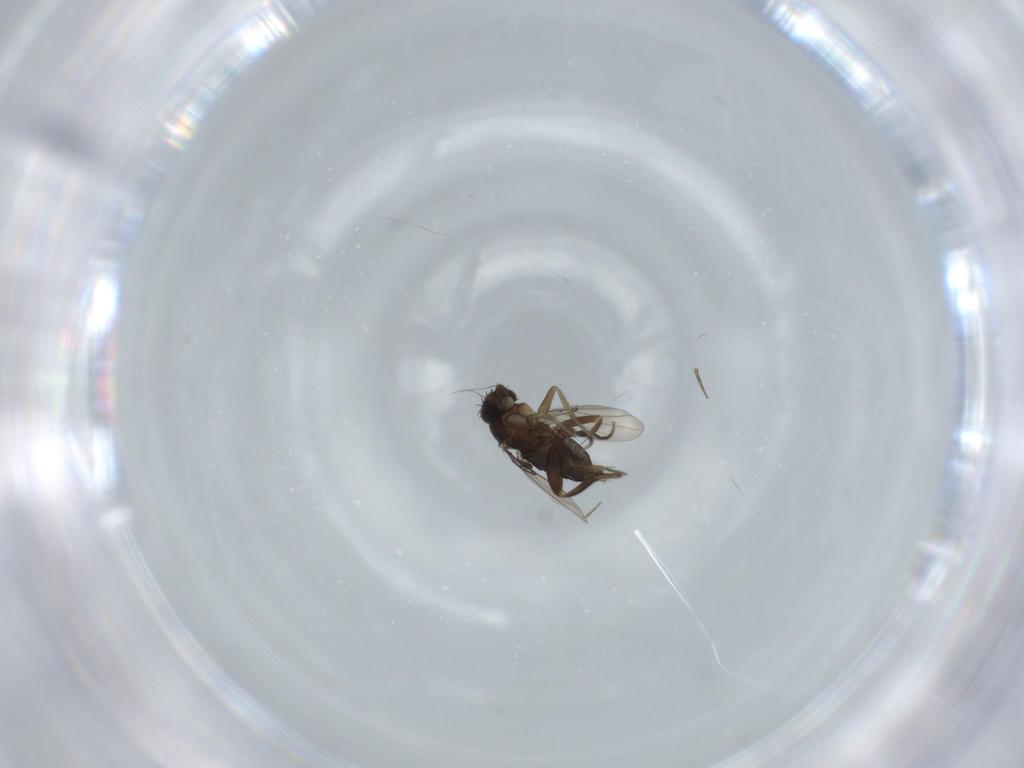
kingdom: Animalia
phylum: Arthropoda
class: Insecta
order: Diptera
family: Phoridae
